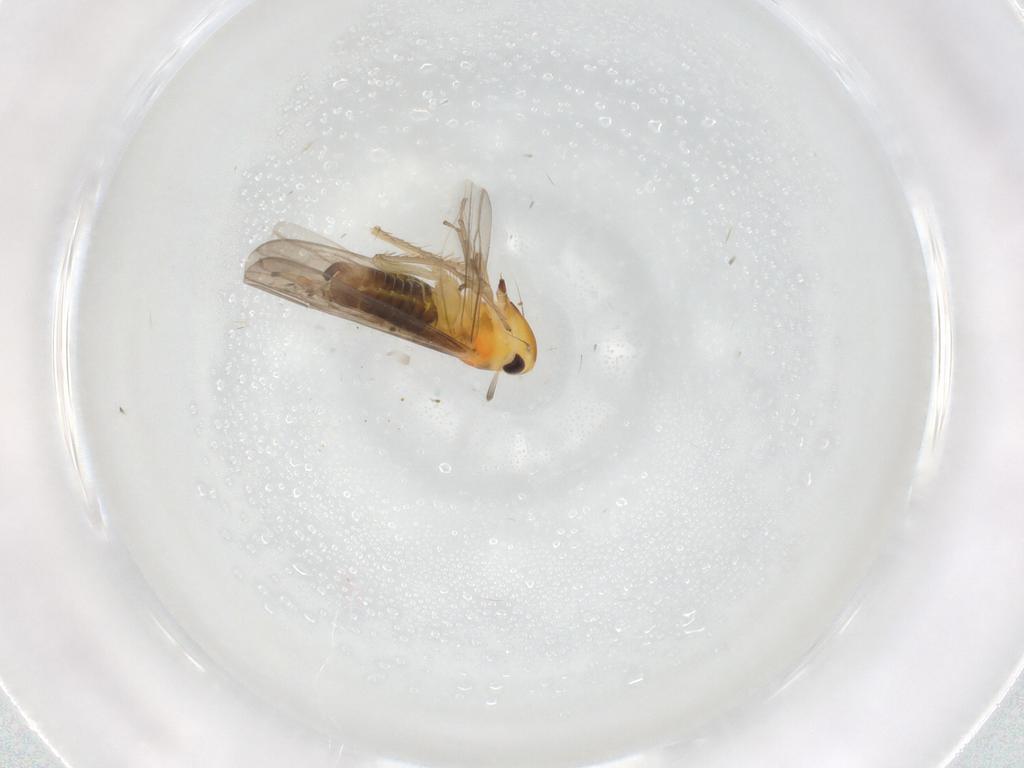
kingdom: Animalia
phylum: Arthropoda
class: Insecta
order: Hemiptera
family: Cicadellidae
